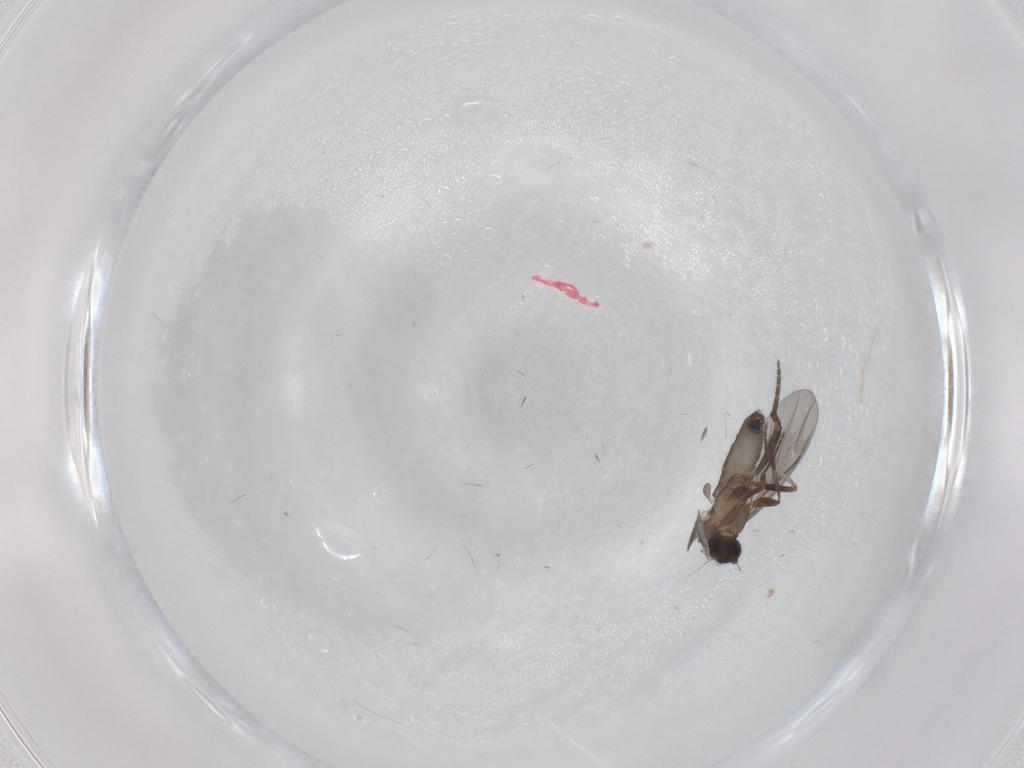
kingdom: Animalia
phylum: Arthropoda
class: Insecta
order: Diptera
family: Phoridae
